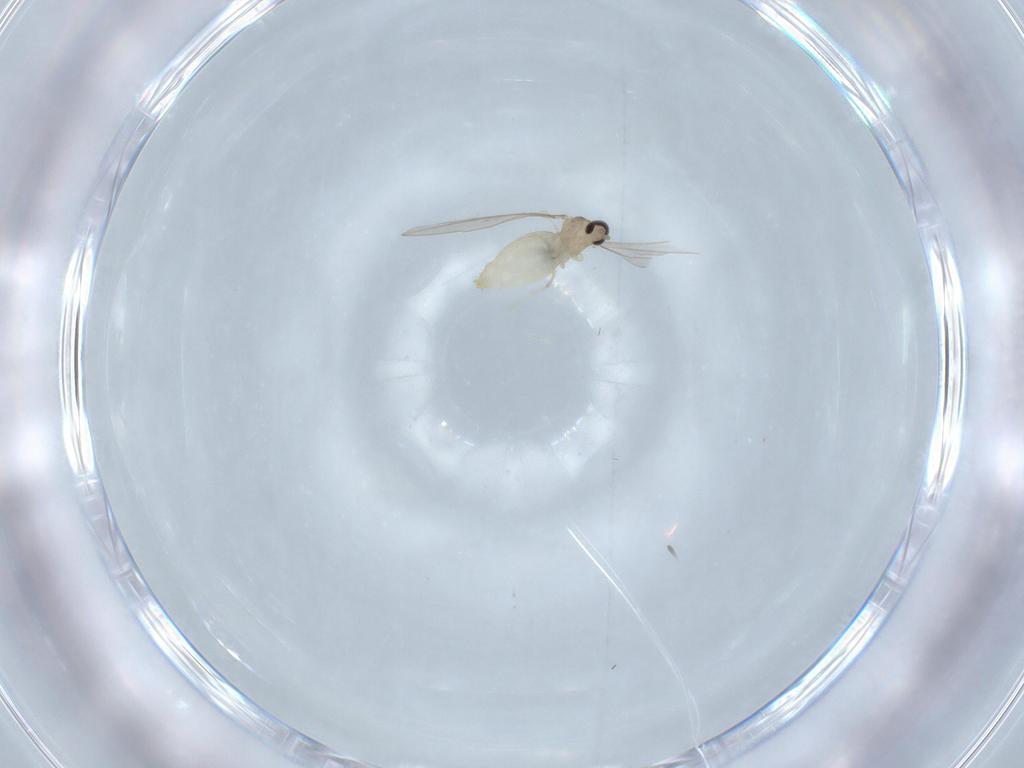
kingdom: Animalia
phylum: Arthropoda
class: Insecta
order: Diptera
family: Cecidomyiidae
